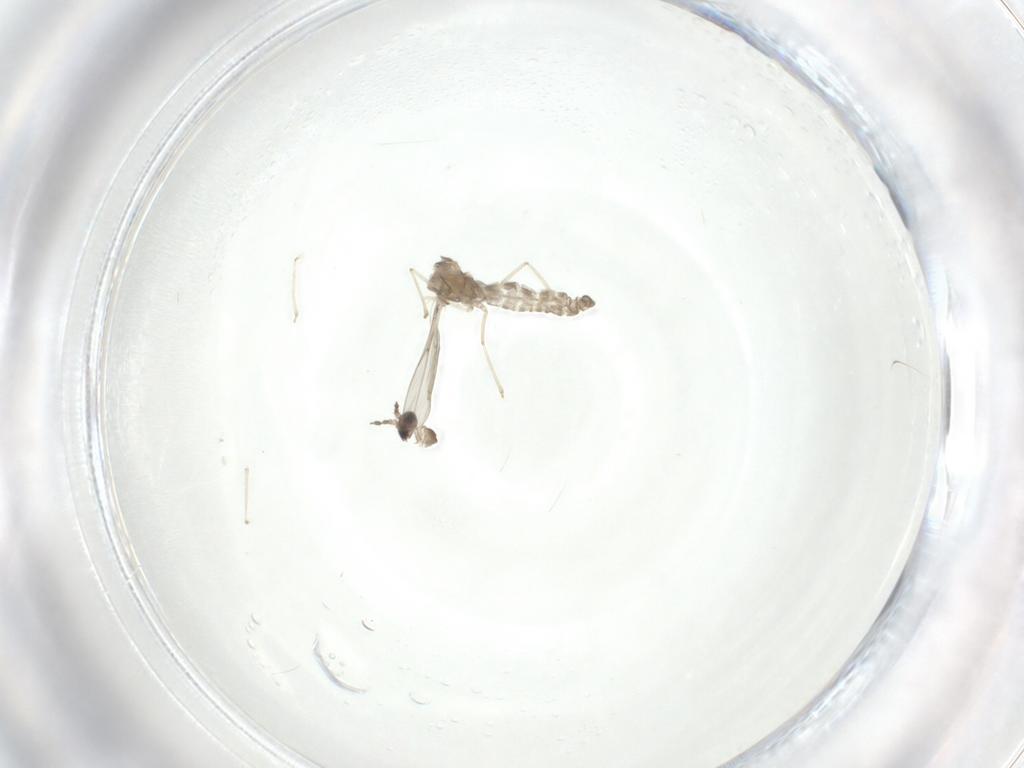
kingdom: Animalia
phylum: Arthropoda
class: Insecta
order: Diptera
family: Cecidomyiidae
